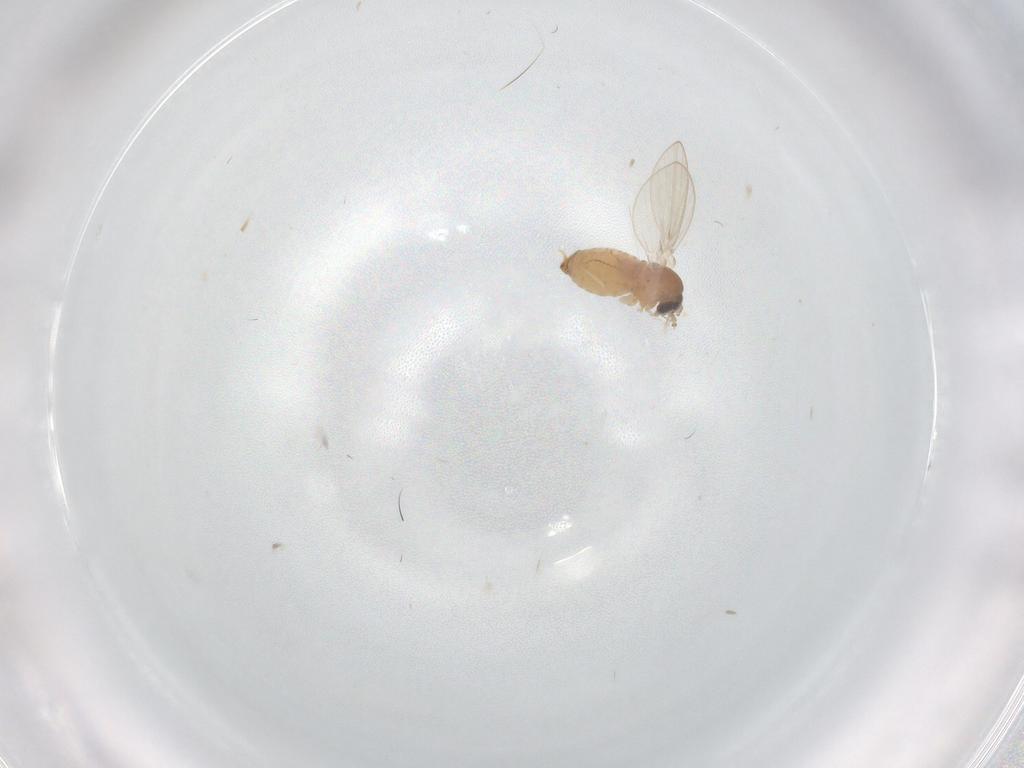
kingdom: Animalia
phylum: Arthropoda
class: Insecta
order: Diptera
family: Psychodidae
